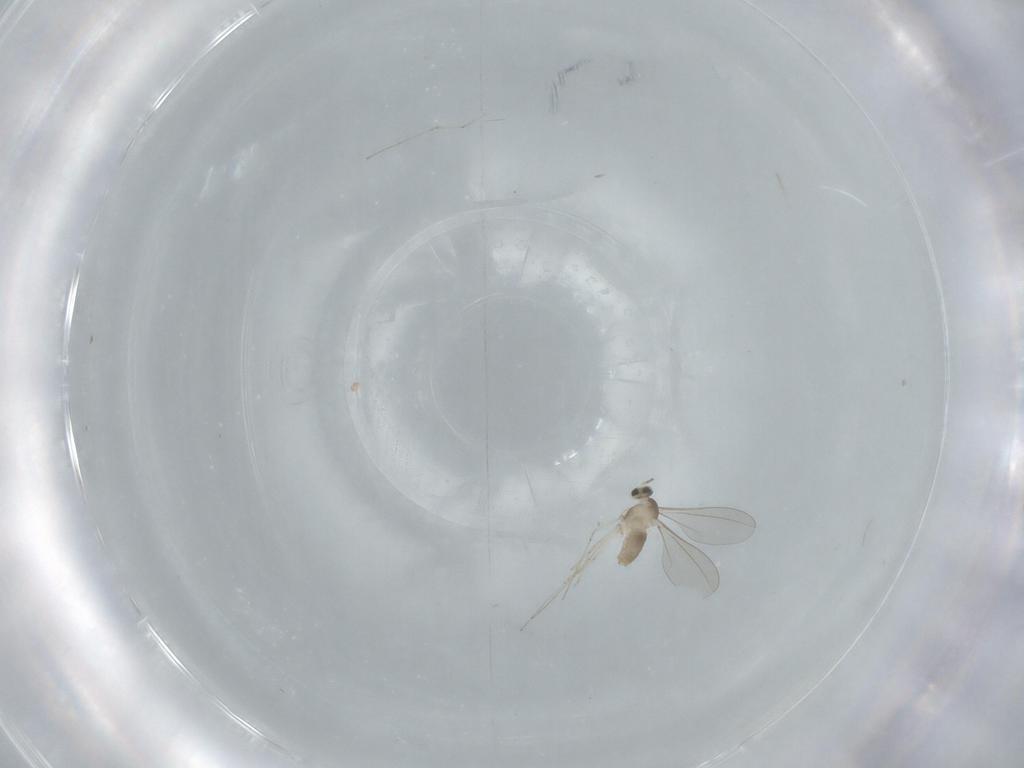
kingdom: Animalia
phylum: Arthropoda
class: Insecta
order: Diptera
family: Cecidomyiidae
